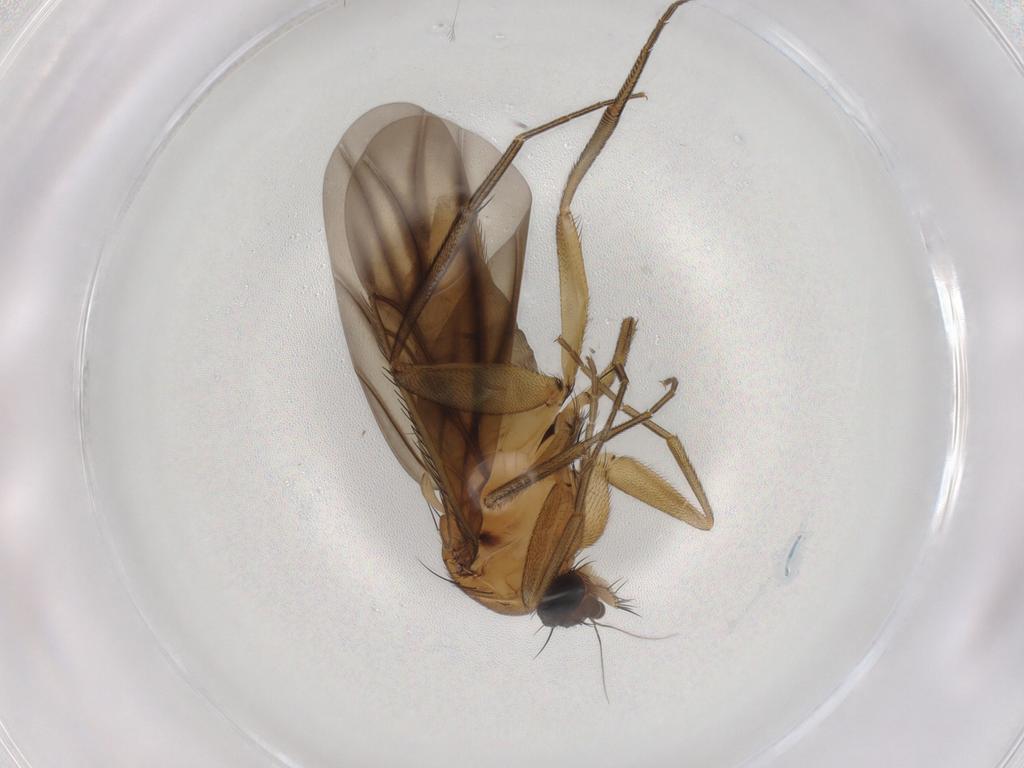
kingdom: Animalia
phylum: Arthropoda
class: Insecta
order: Diptera
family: Phoridae
